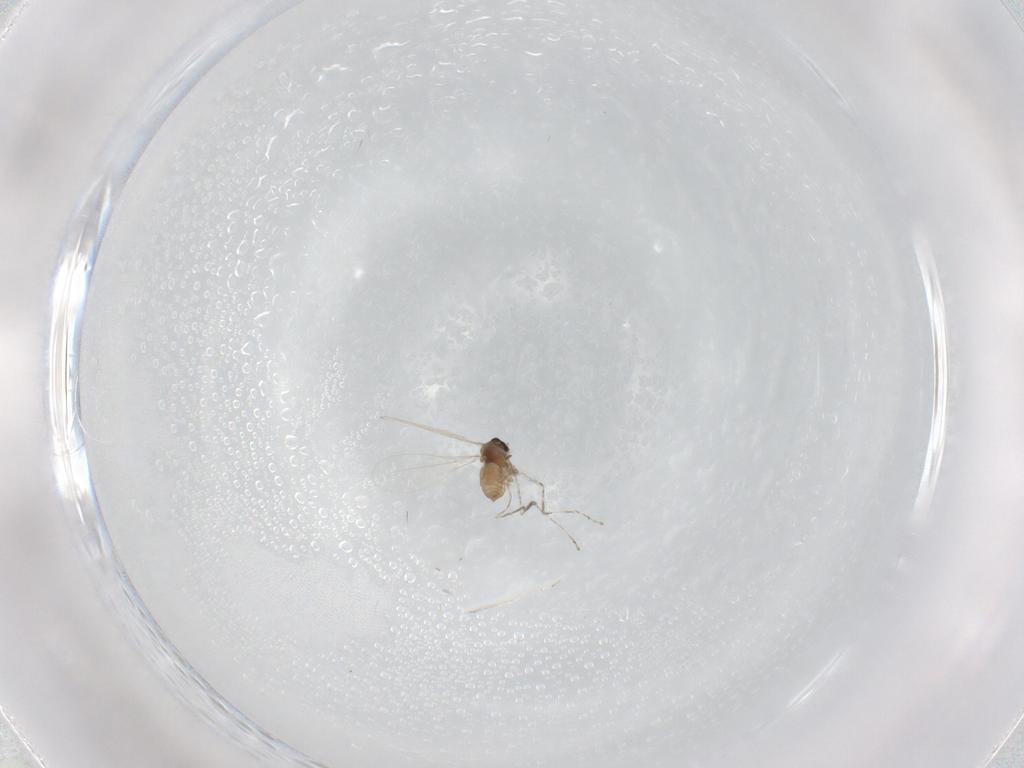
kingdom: Animalia
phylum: Arthropoda
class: Insecta
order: Diptera
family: Cecidomyiidae
